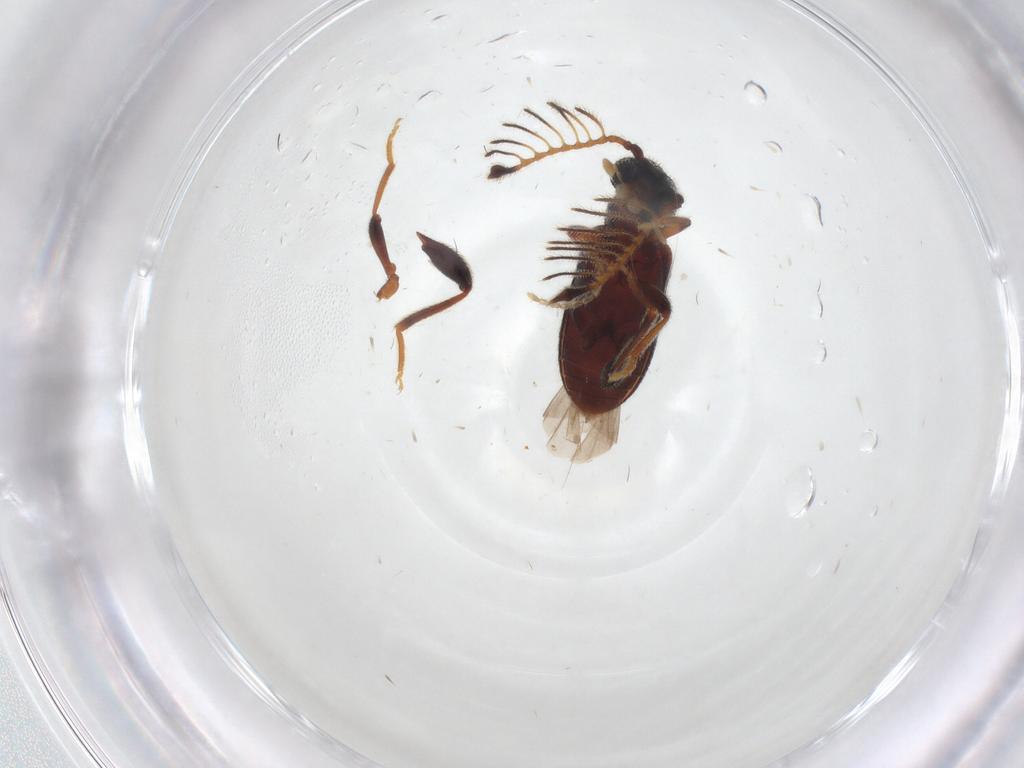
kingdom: Animalia
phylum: Arthropoda
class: Insecta
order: Coleoptera
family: Aderidae
